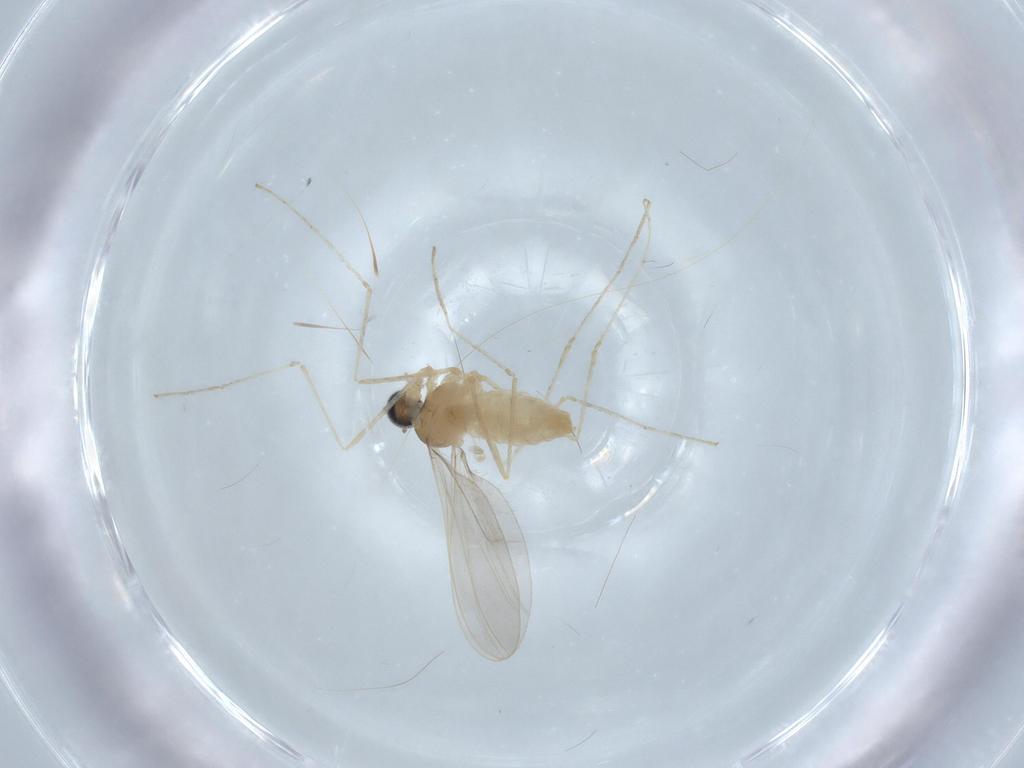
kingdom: Animalia
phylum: Arthropoda
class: Insecta
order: Diptera
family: Cecidomyiidae
